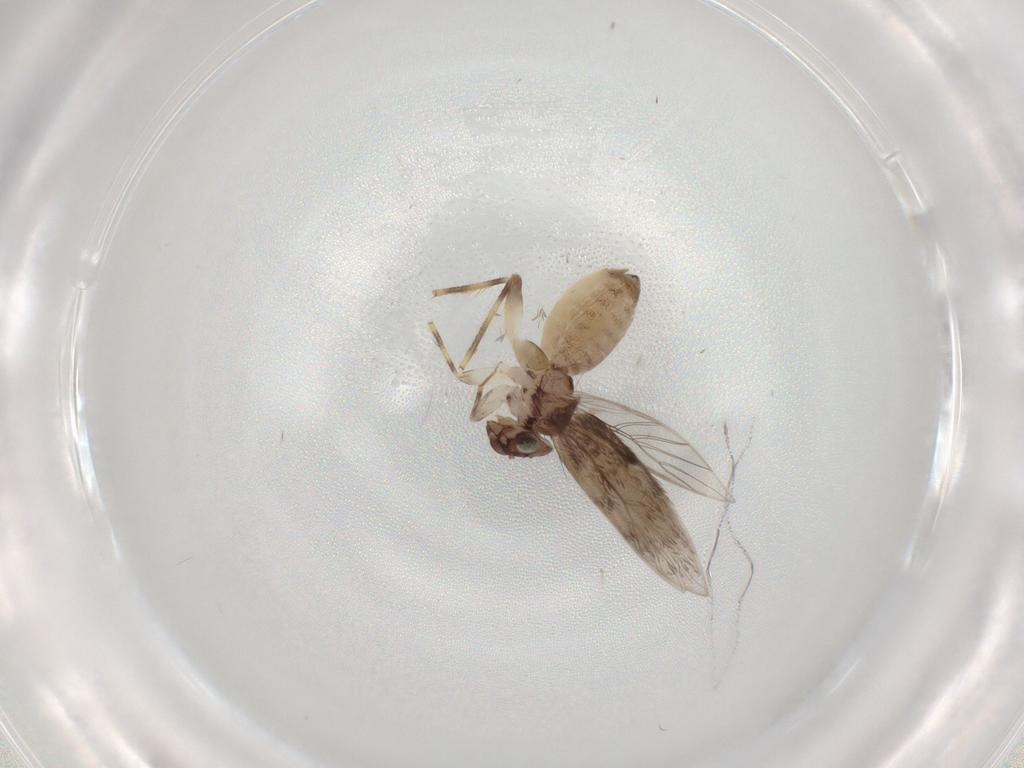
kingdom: Animalia
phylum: Arthropoda
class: Insecta
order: Psocodea
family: Lepidopsocidae
